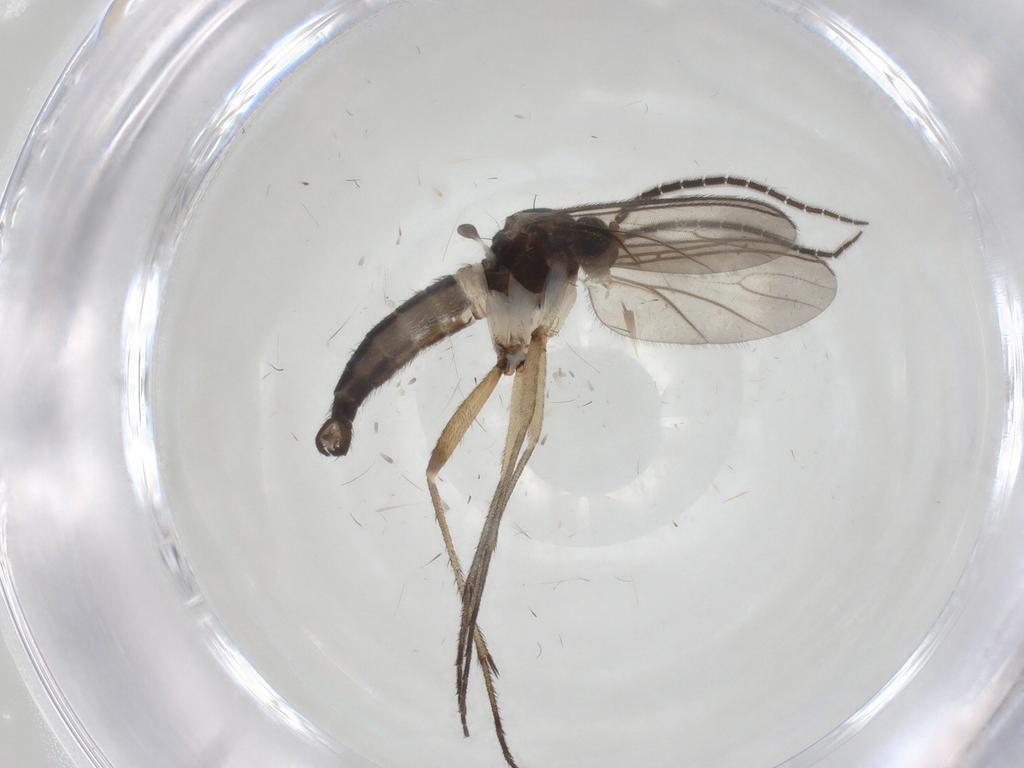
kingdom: Animalia
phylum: Arthropoda
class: Insecta
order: Diptera
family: Sciaridae
